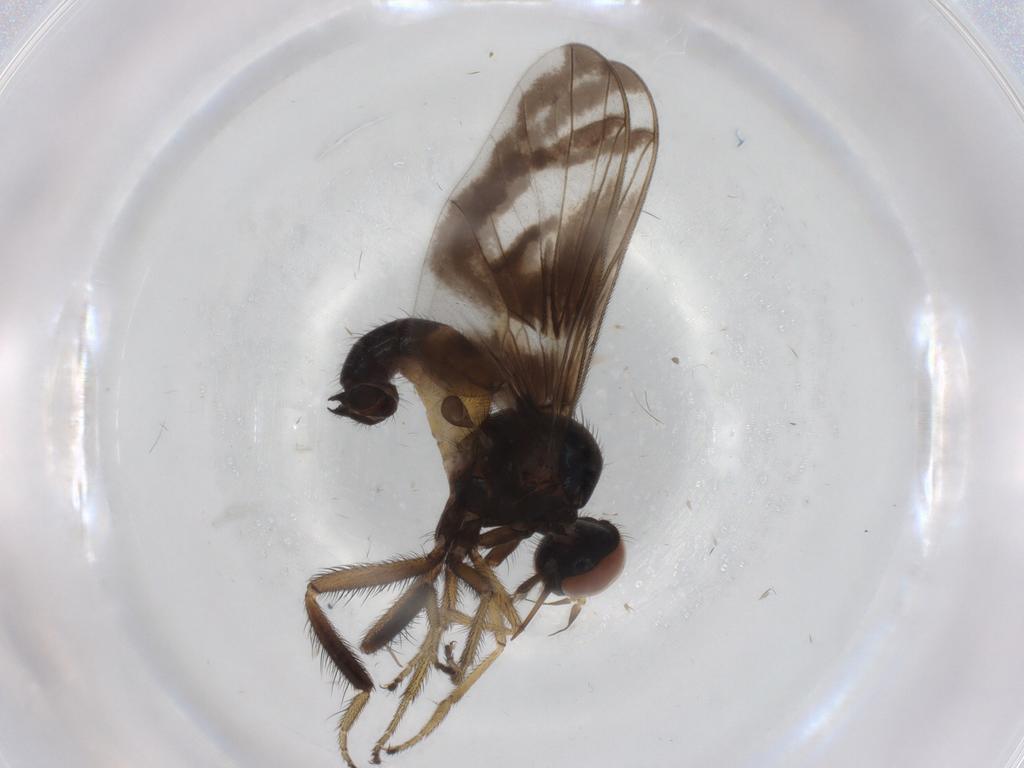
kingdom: Animalia
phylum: Arthropoda
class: Insecta
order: Diptera
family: Empididae
